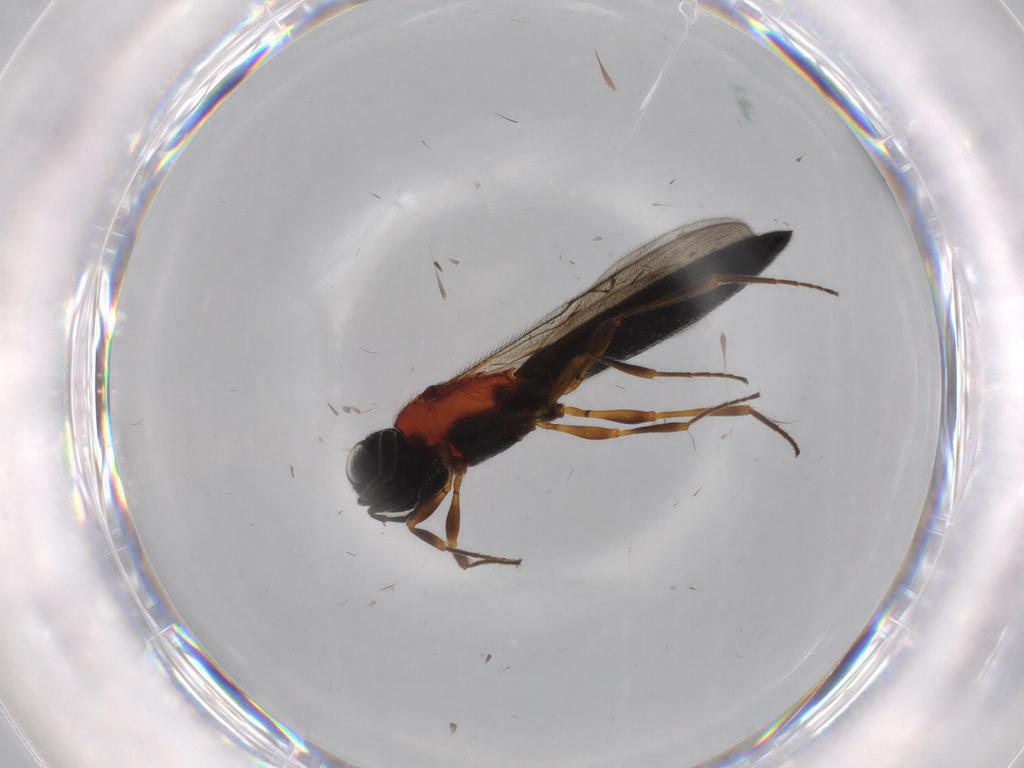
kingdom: Animalia
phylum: Arthropoda
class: Insecta
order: Hymenoptera
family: Scelionidae
